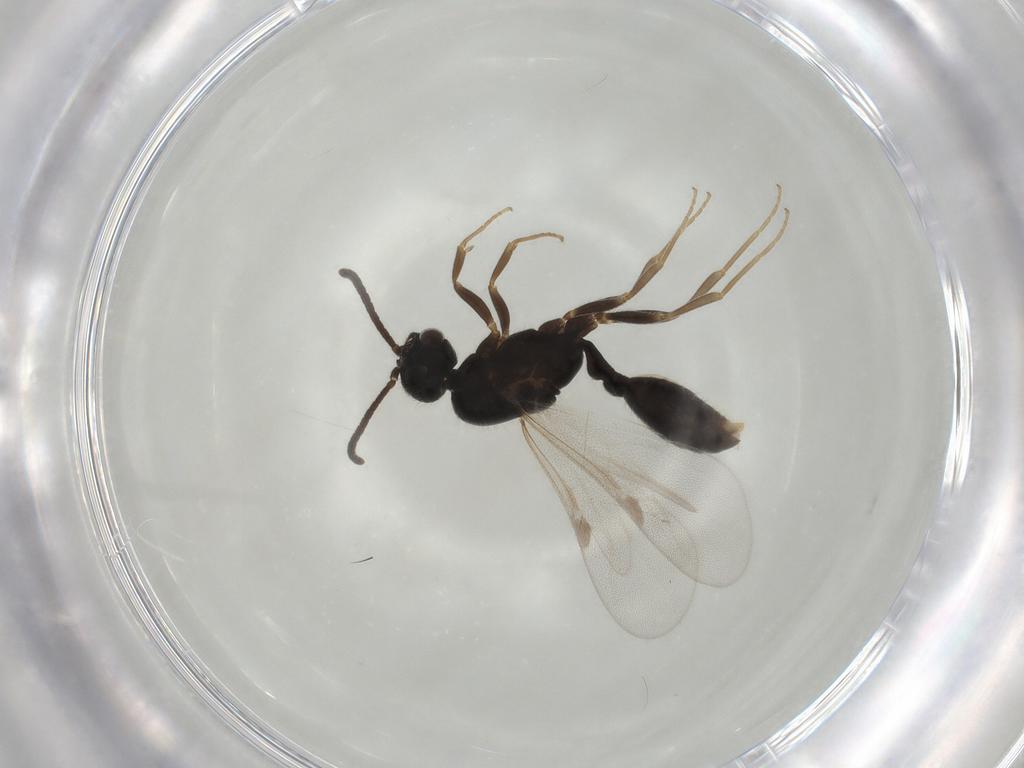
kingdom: Animalia
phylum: Arthropoda
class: Insecta
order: Hymenoptera
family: Formicidae
